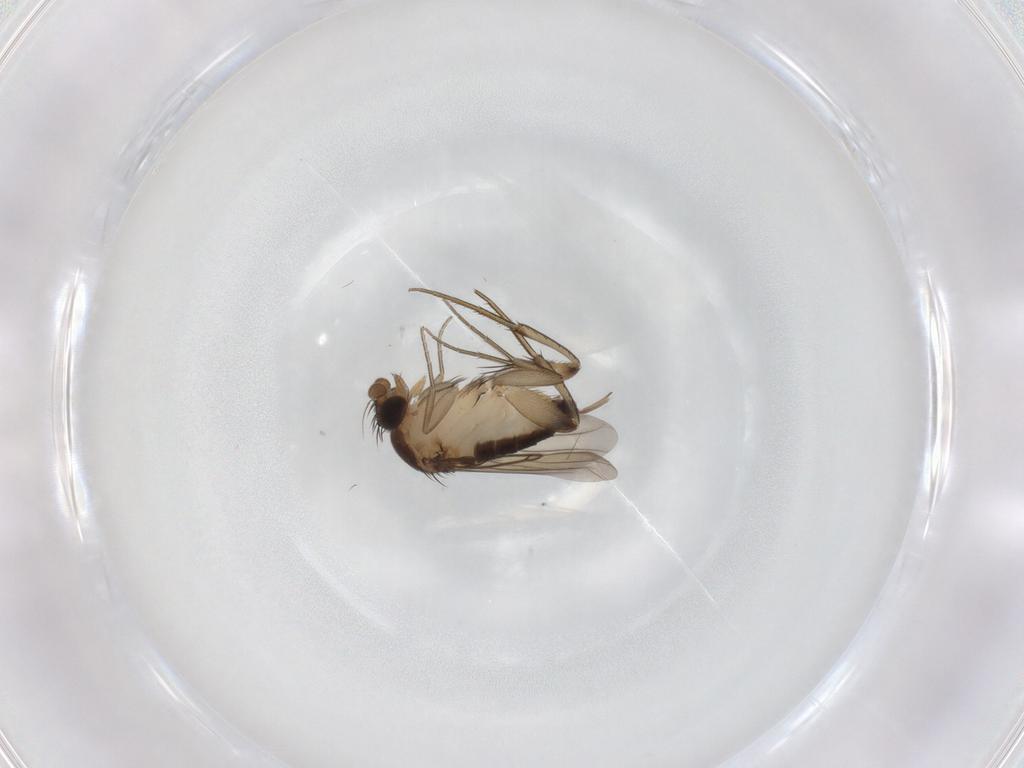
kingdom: Animalia
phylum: Arthropoda
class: Insecta
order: Diptera
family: Phoridae
